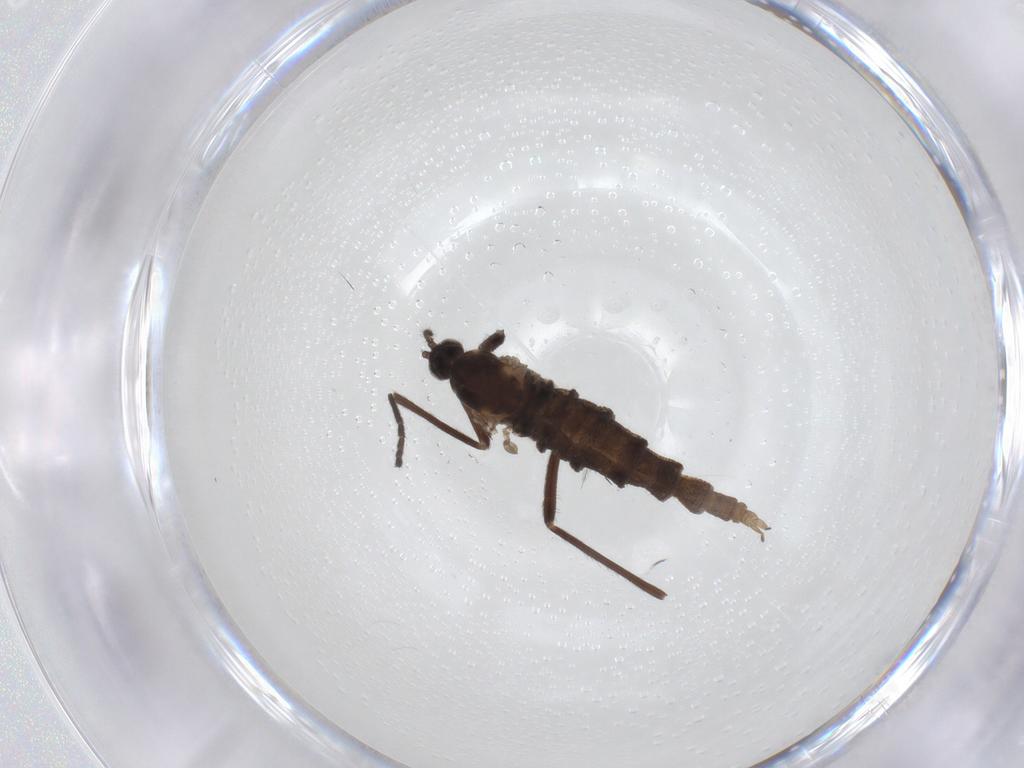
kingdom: Animalia
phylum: Arthropoda
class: Insecta
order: Diptera
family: Cecidomyiidae
